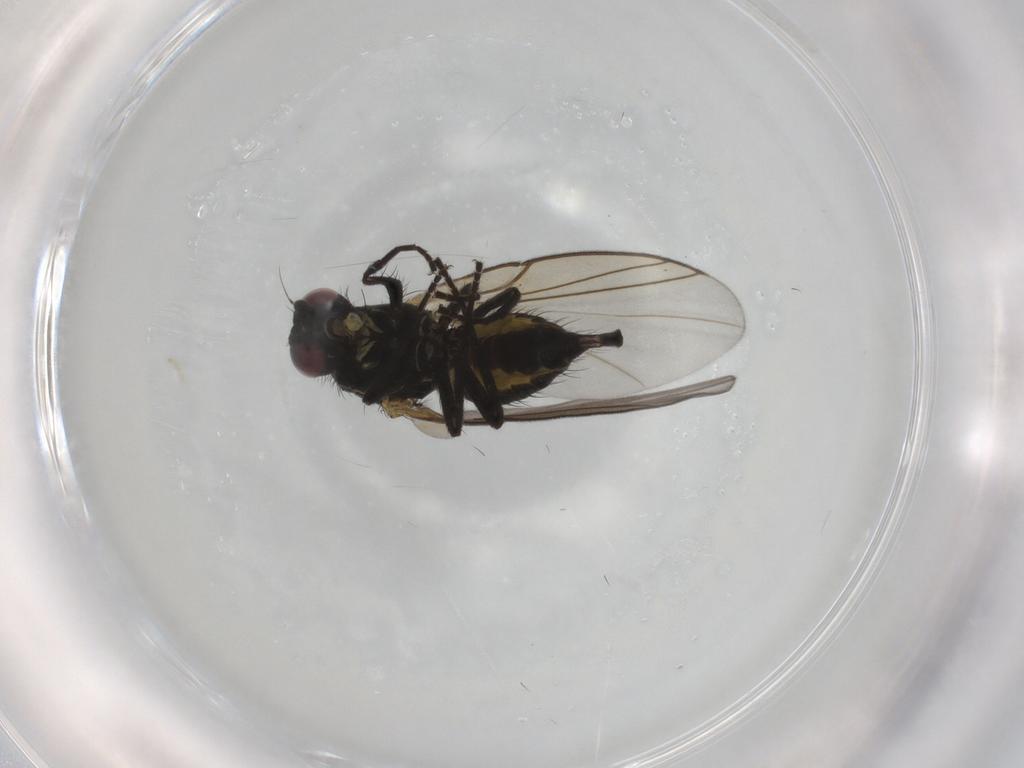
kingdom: Animalia
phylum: Arthropoda
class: Insecta
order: Diptera
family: Agromyzidae
